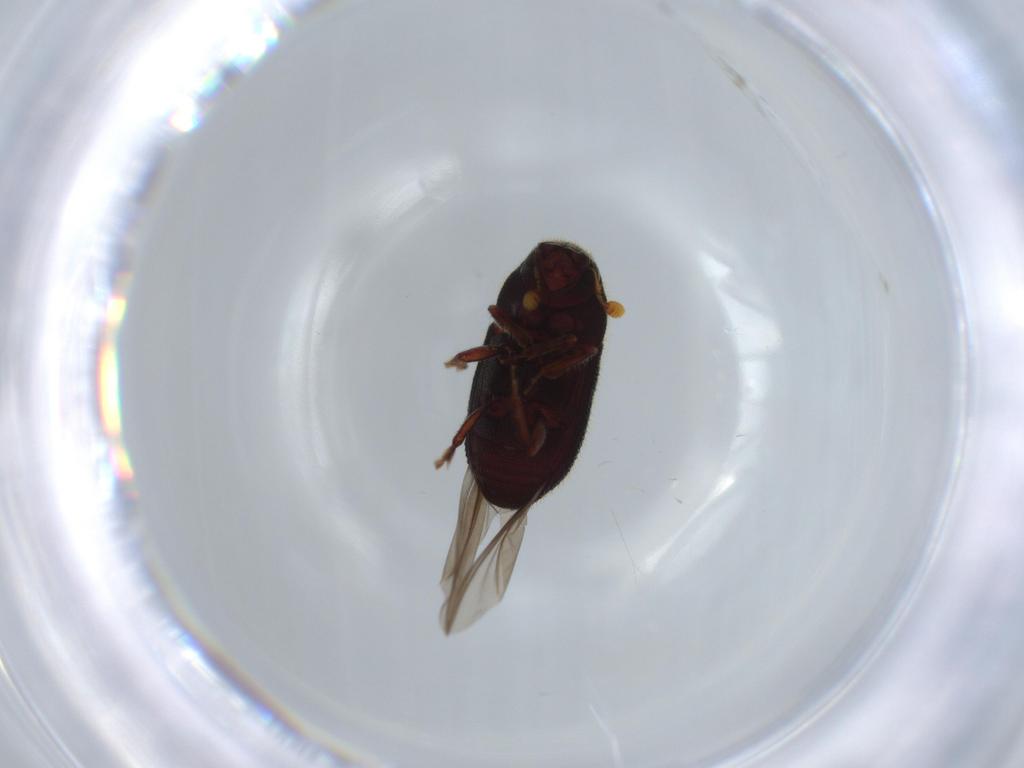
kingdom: Animalia
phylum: Arthropoda
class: Insecta
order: Coleoptera
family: Curculionidae
